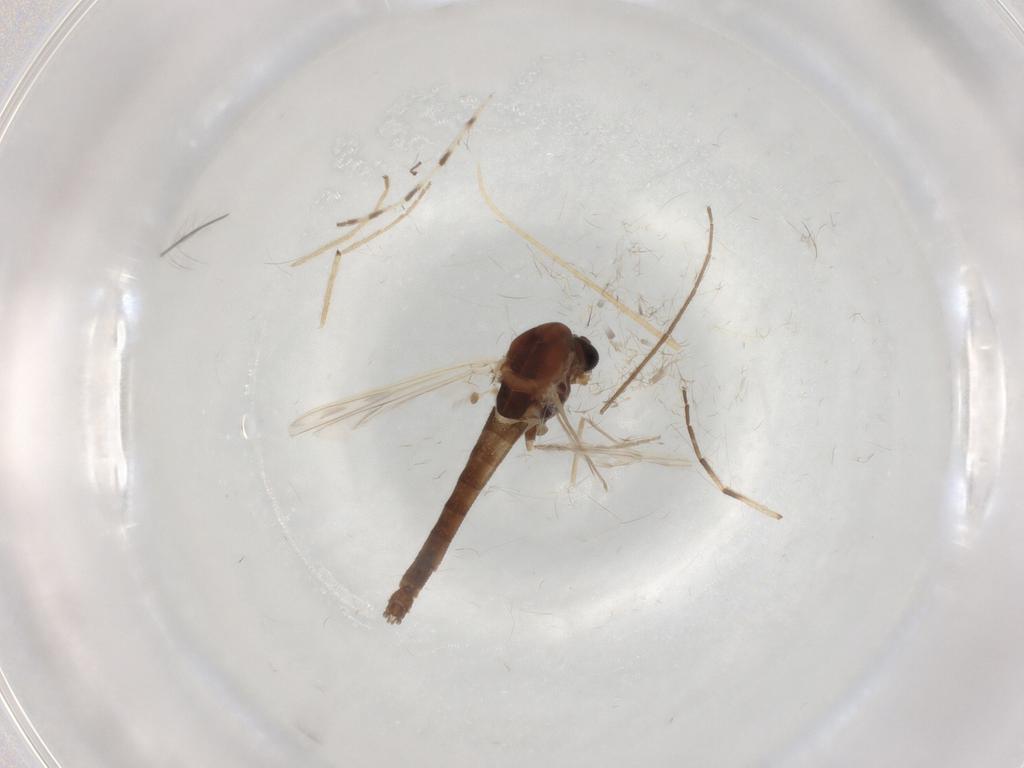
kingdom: Animalia
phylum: Arthropoda
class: Insecta
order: Diptera
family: Chironomidae
